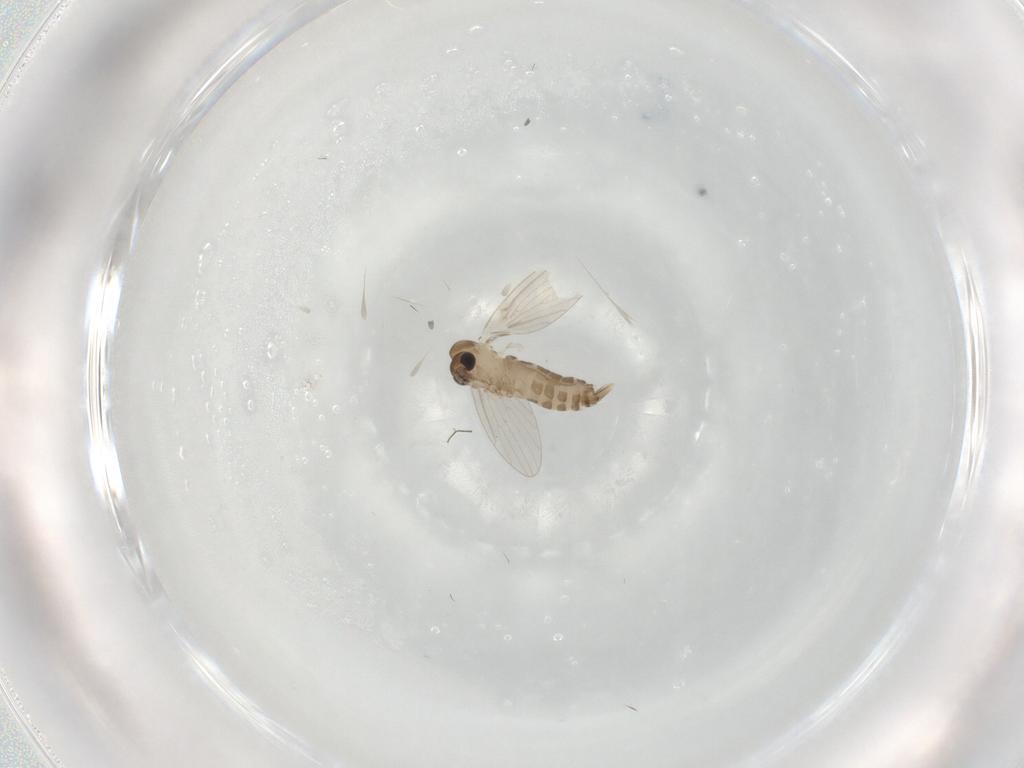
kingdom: Animalia
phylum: Arthropoda
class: Insecta
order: Diptera
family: Psychodidae
